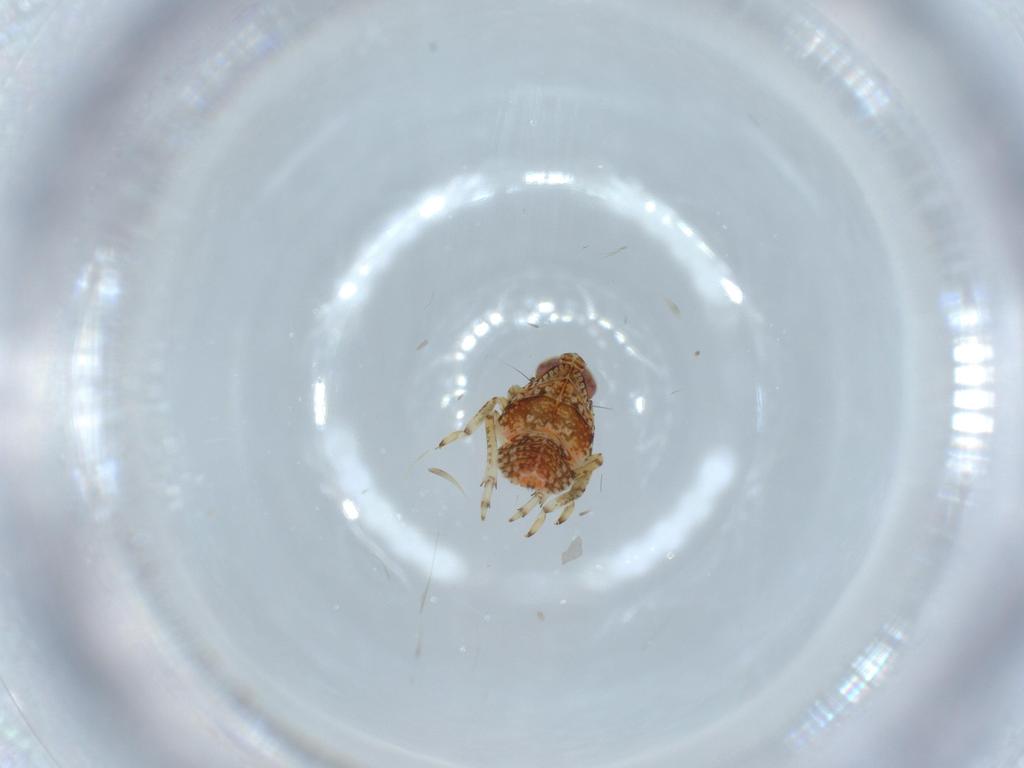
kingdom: Animalia
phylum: Arthropoda
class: Insecta
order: Hemiptera
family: Issidae
